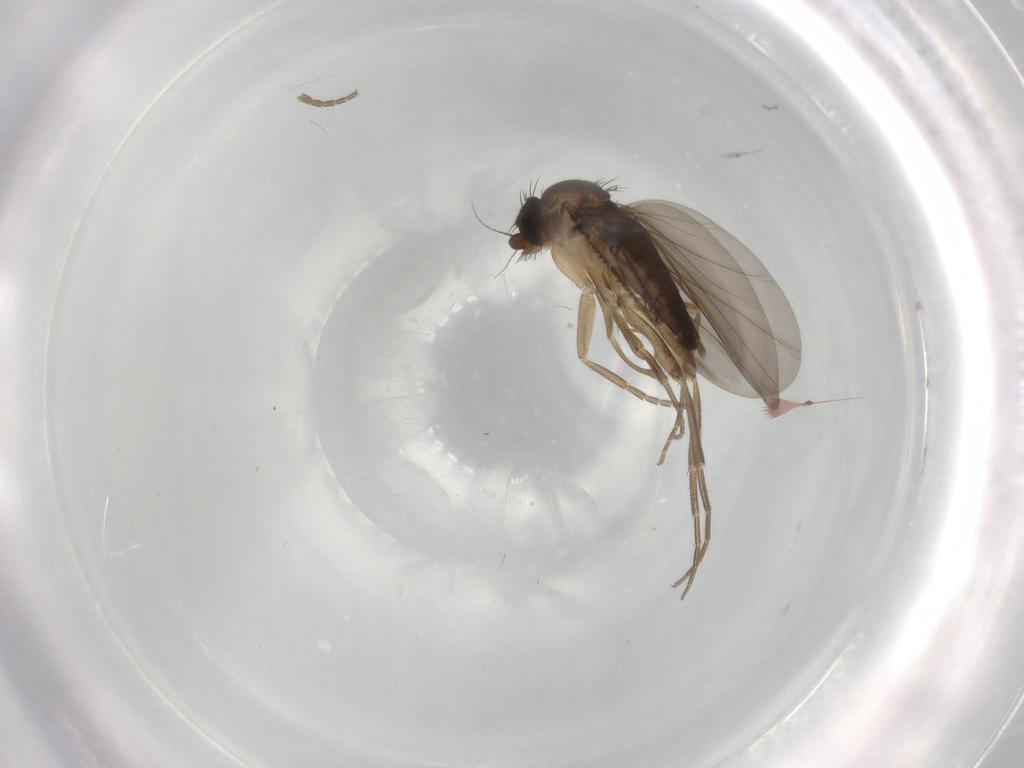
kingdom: Animalia
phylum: Arthropoda
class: Insecta
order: Diptera
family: Phoridae
